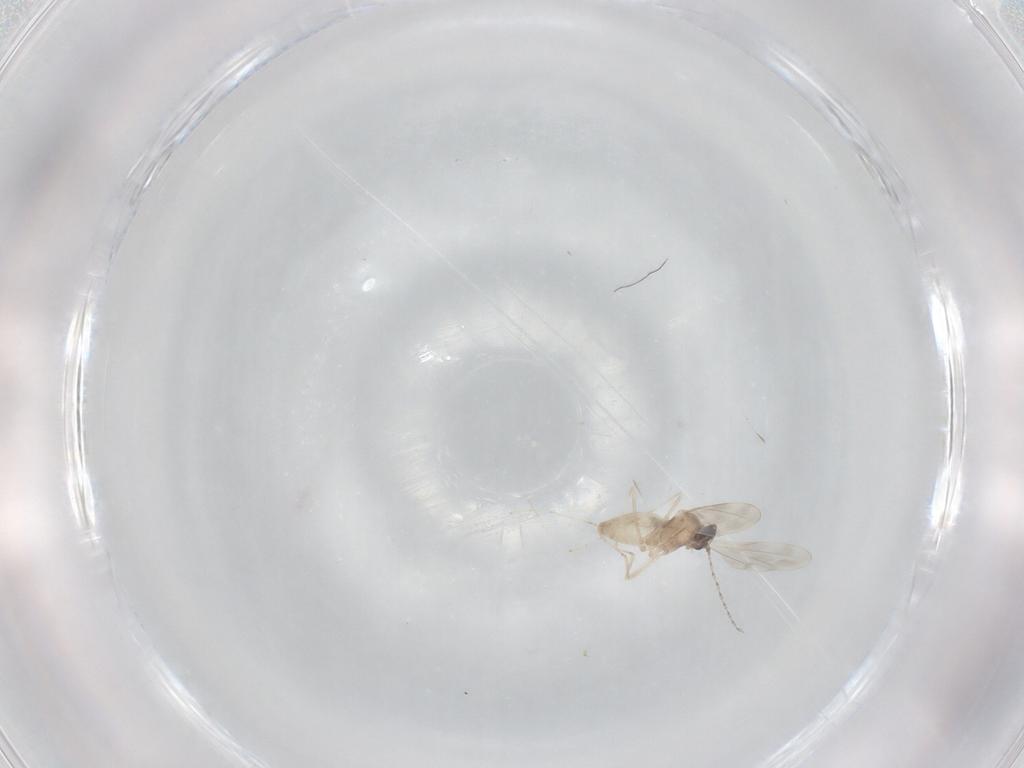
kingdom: Animalia
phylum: Arthropoda
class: Insecta
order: Diptera
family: Cecidomyiidae
